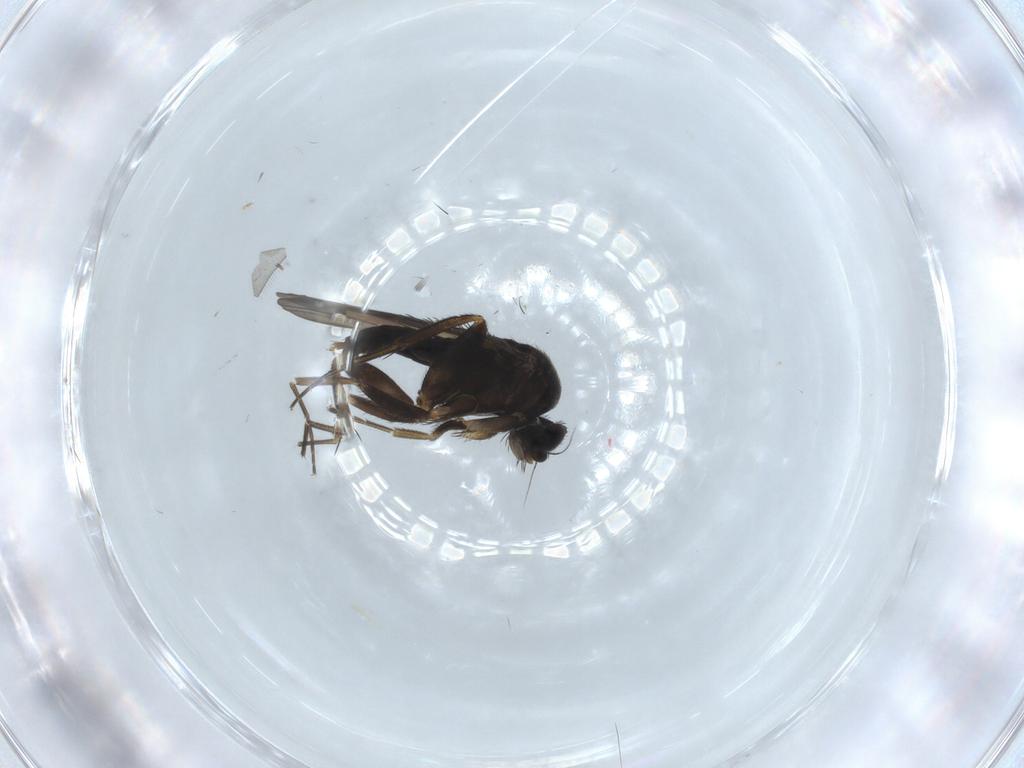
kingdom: Animalia
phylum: Arthropoda
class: Insecta
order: Diptera
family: Phoridae
